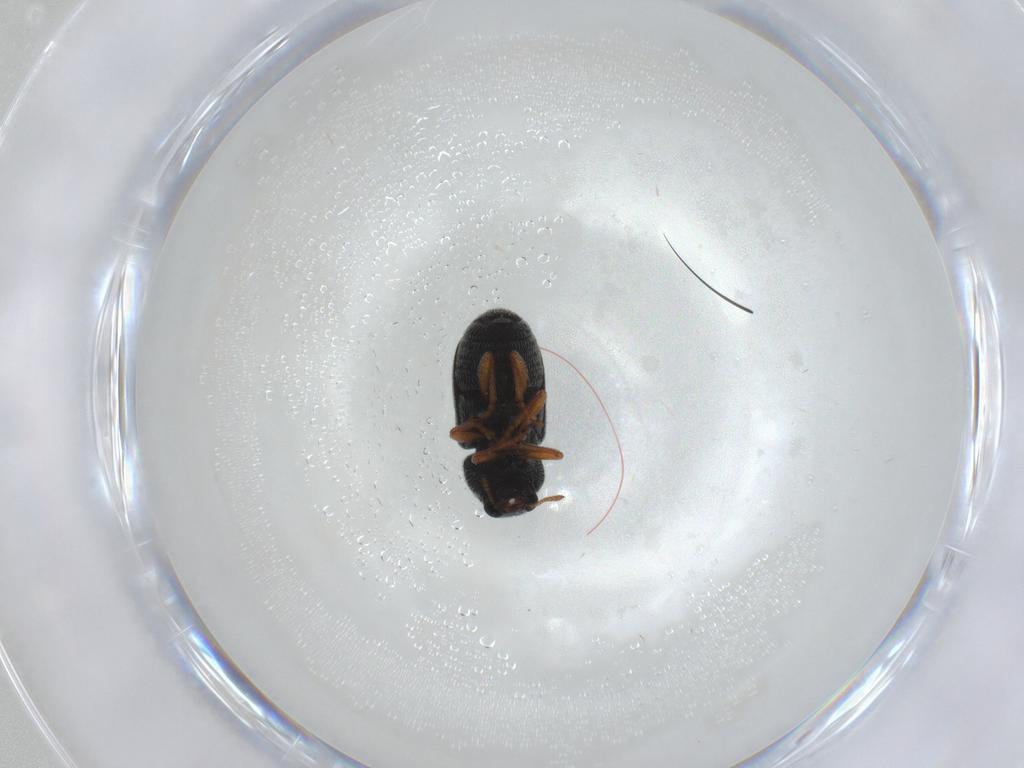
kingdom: Animalia
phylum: Arthropoda
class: Insecta
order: Coleoptera
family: Anthribidae
